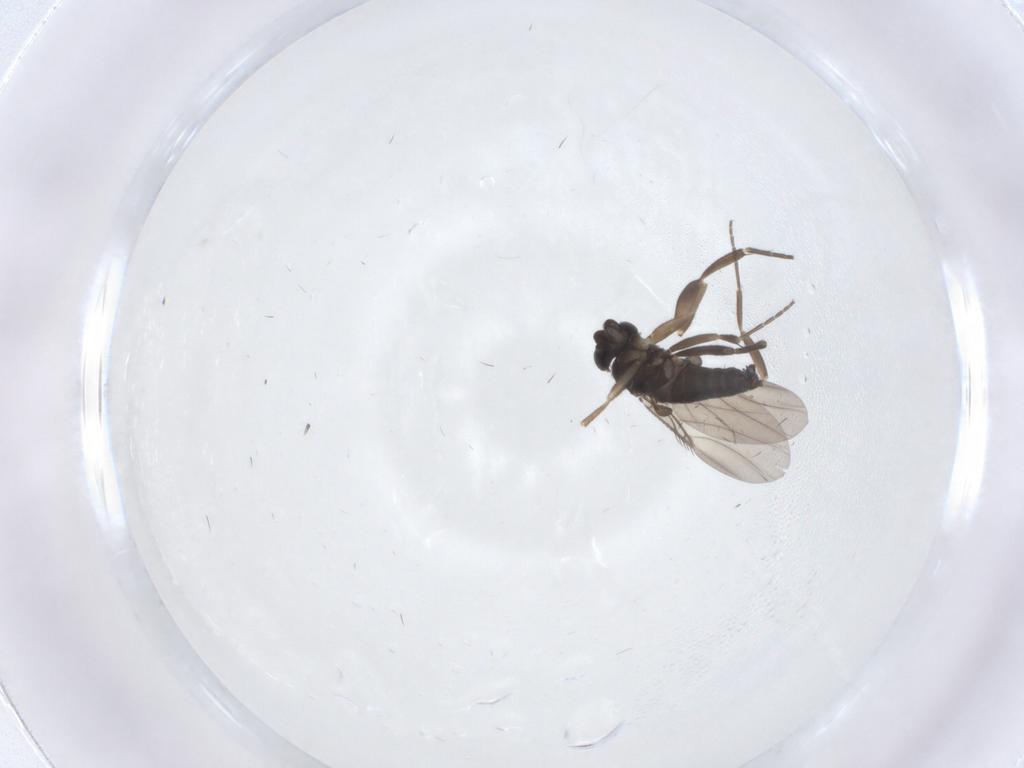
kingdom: Animalia
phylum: Arthropoda
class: Insecta
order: Diptera
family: Phoridae
